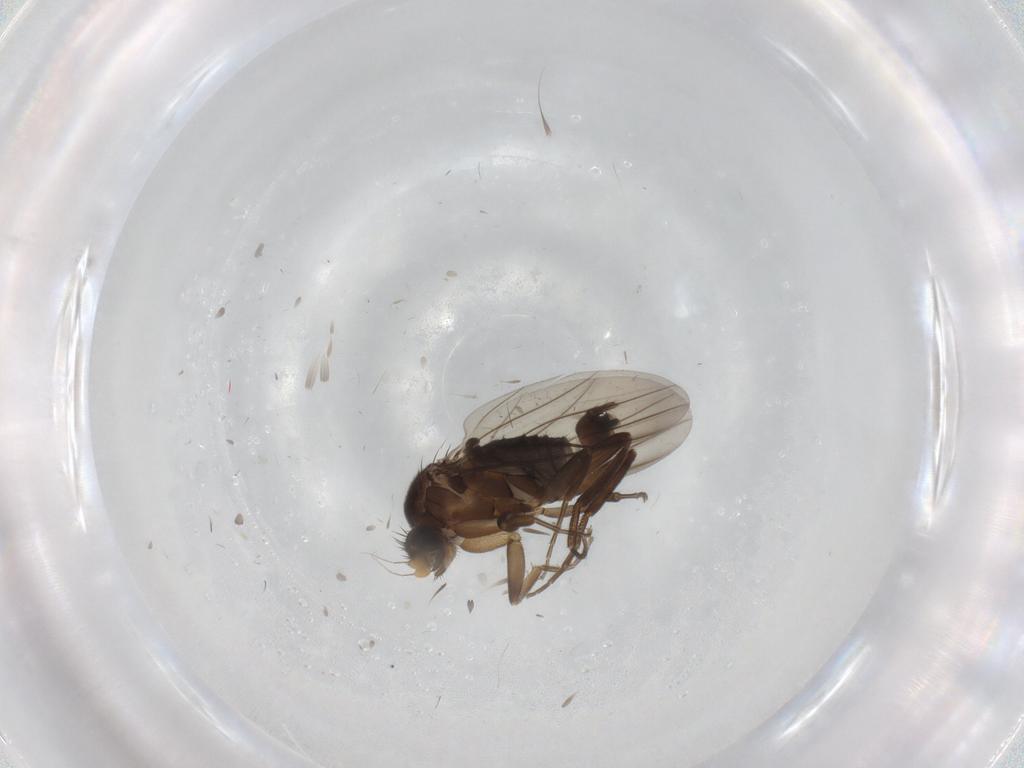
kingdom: Animalia
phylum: Arthropoda
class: Insecta
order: Diptera
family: Cecidomyiidae
